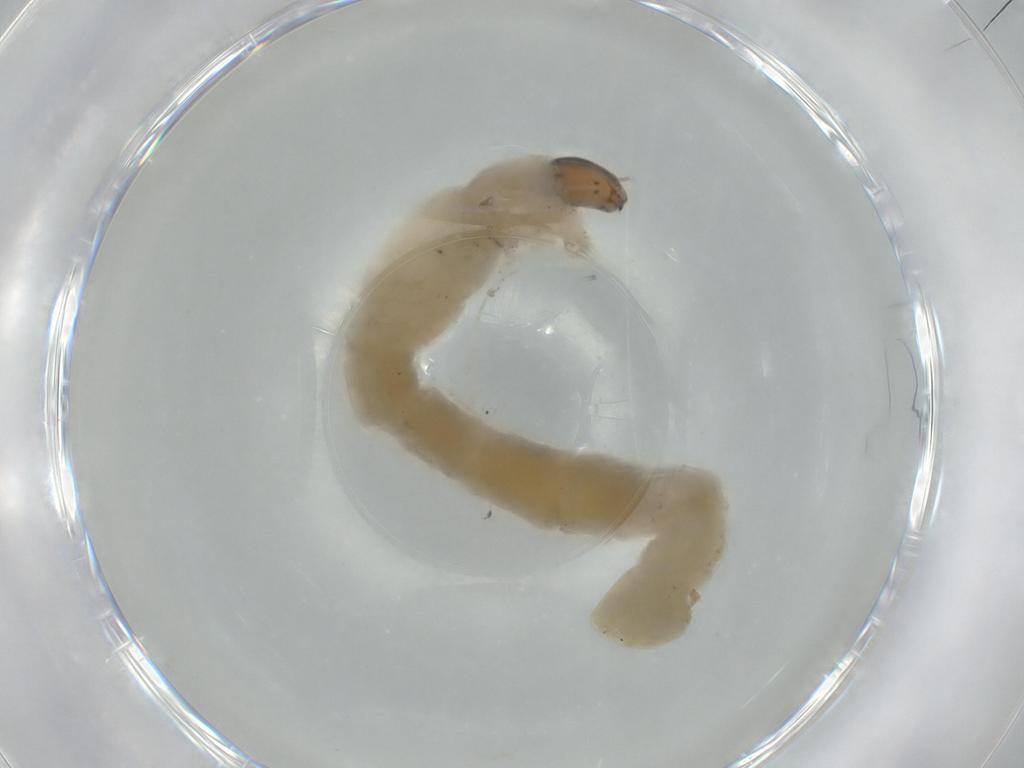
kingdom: Animalia
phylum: Arthropoda
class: Insecta
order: Diptera
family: Chironomidae
